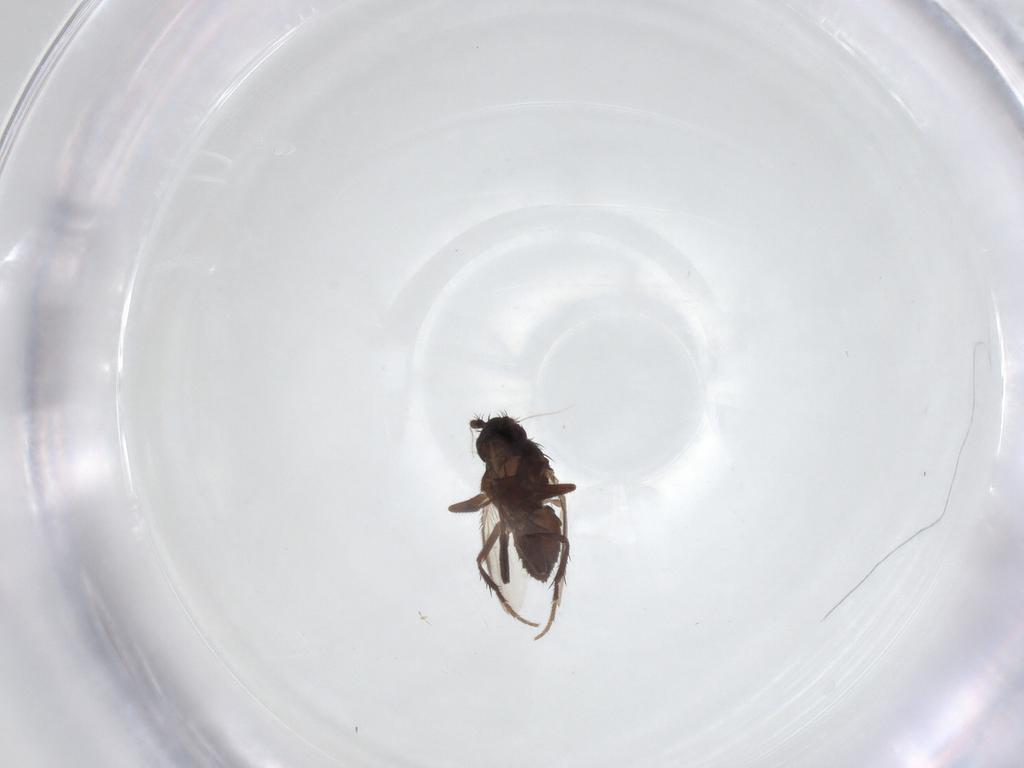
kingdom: Animalia
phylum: Arthropoda
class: Insecta
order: Diptera
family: Sphaeroceridae
